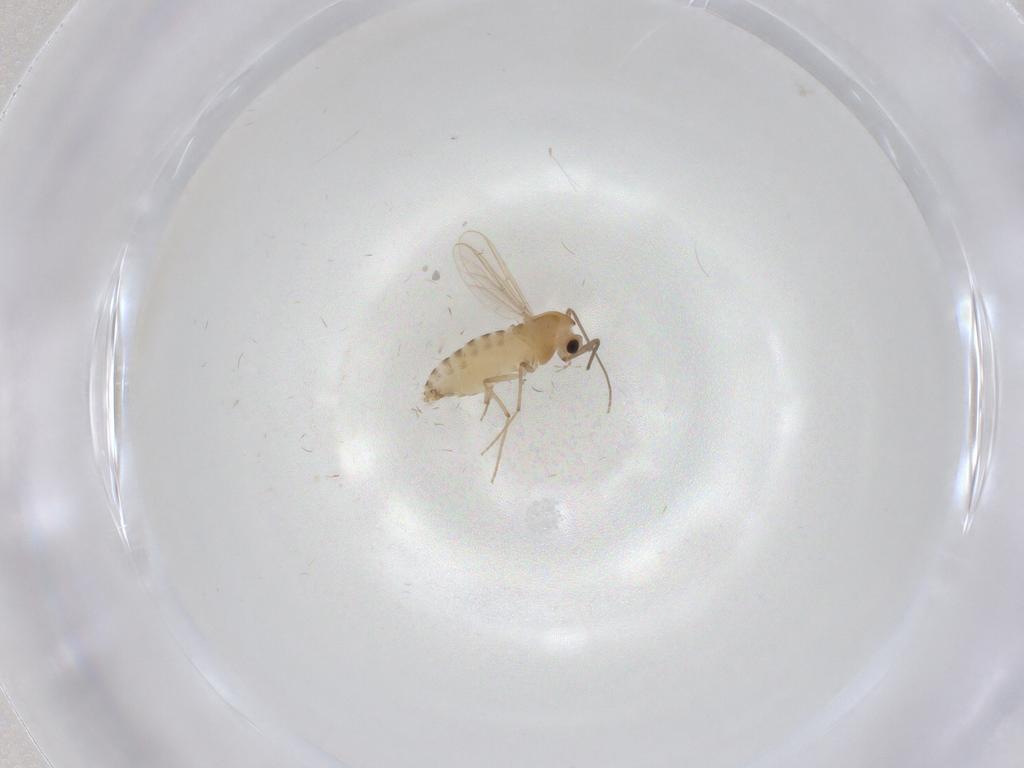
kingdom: Animalia
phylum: Arthropoda
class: Insecta
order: Diptera
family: Chironomidae
